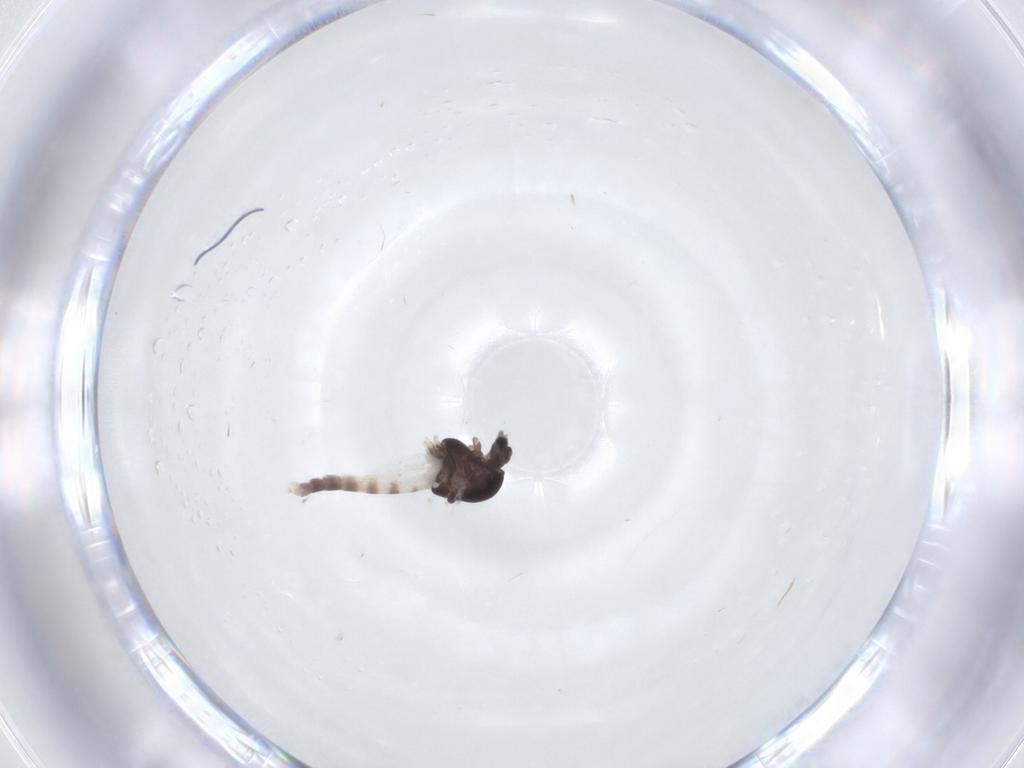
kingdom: Animalia
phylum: Arthropoda
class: Insecta
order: Diptera
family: Chironomidae
